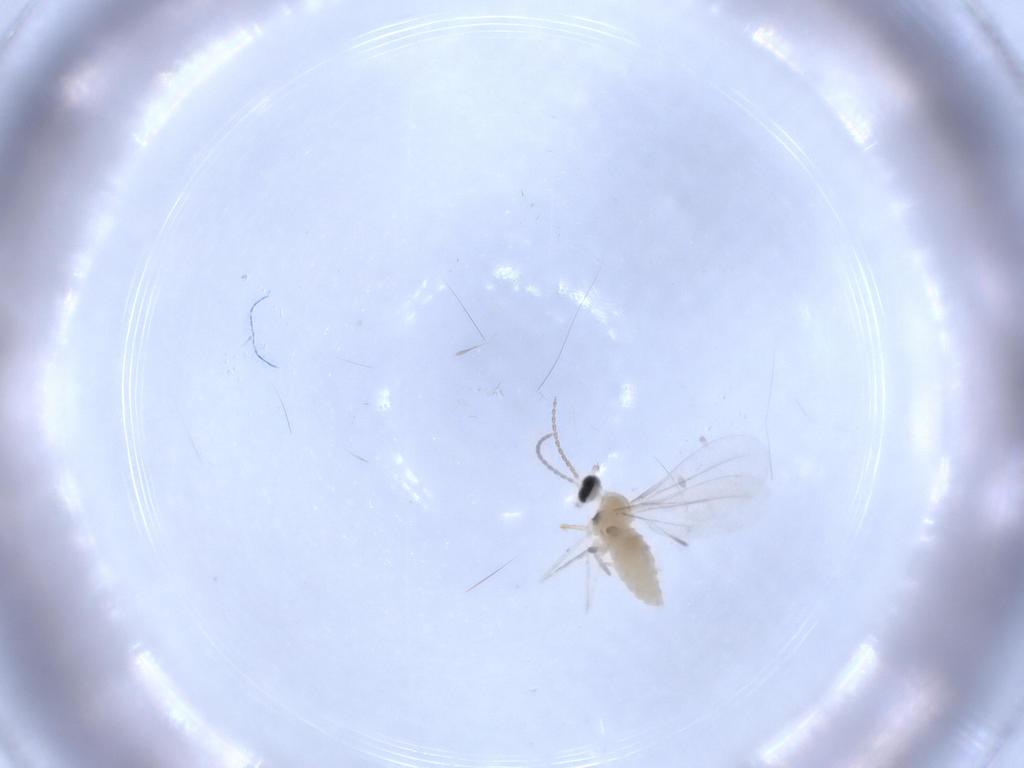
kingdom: Animalia
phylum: Arthropoda
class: Insecta
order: Diptera
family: Cecidomyiidae
